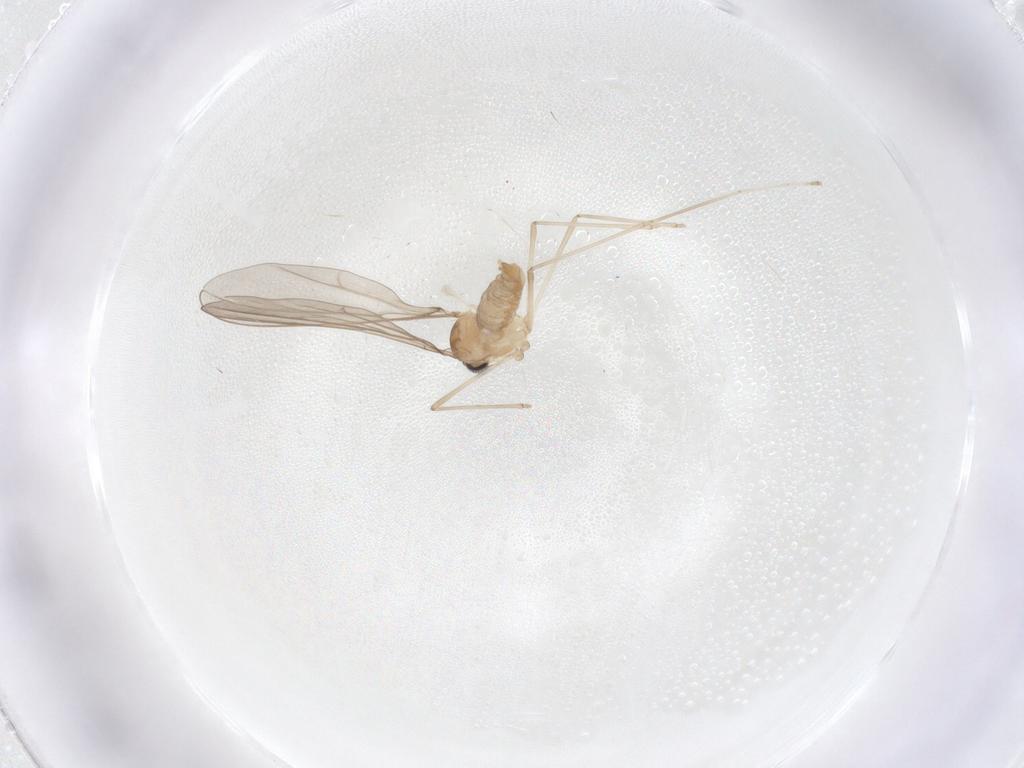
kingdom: Animalia
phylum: Arthropoda
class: Insecta
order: Diptera
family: Cecidomyiidae
